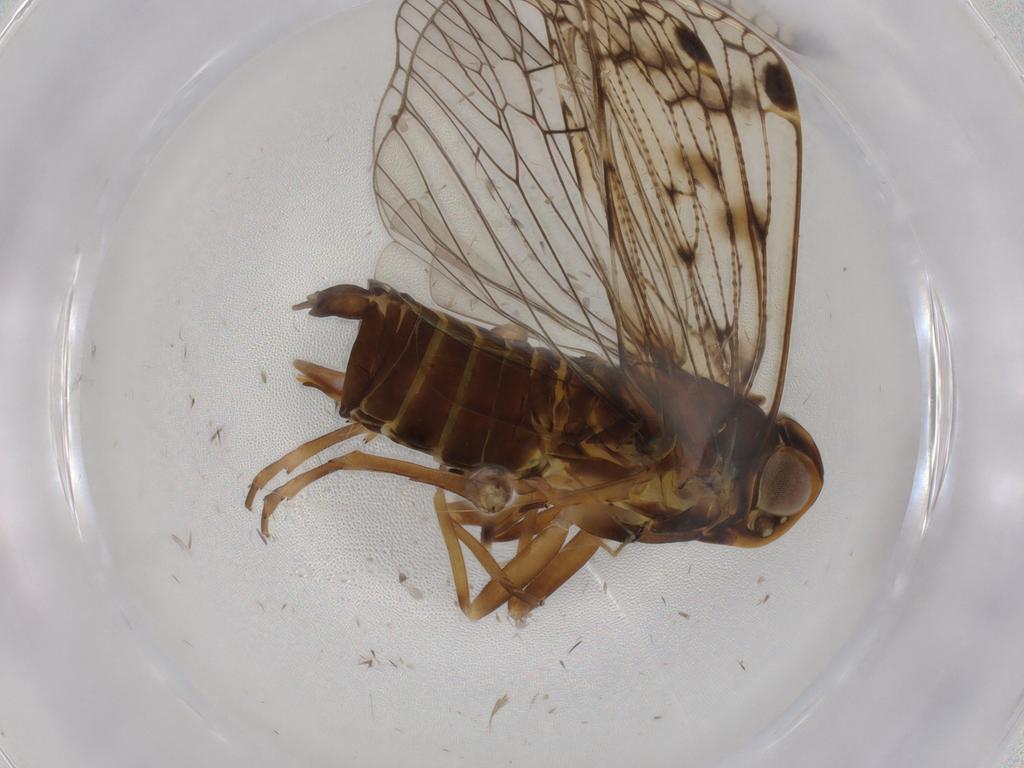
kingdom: Animalia
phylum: Arthropoda
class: Insecta
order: Hemiptera
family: Cixiidae
